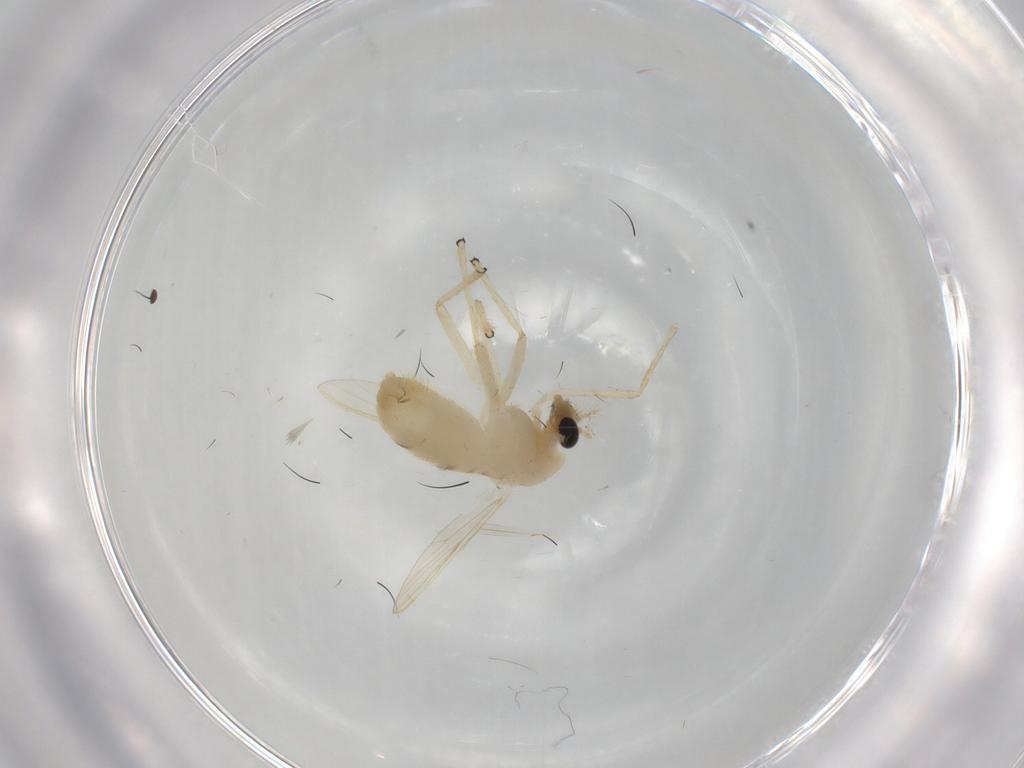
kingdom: Animalia
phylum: Arthropoda
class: Insecta
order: Diptera
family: Chironomidae
